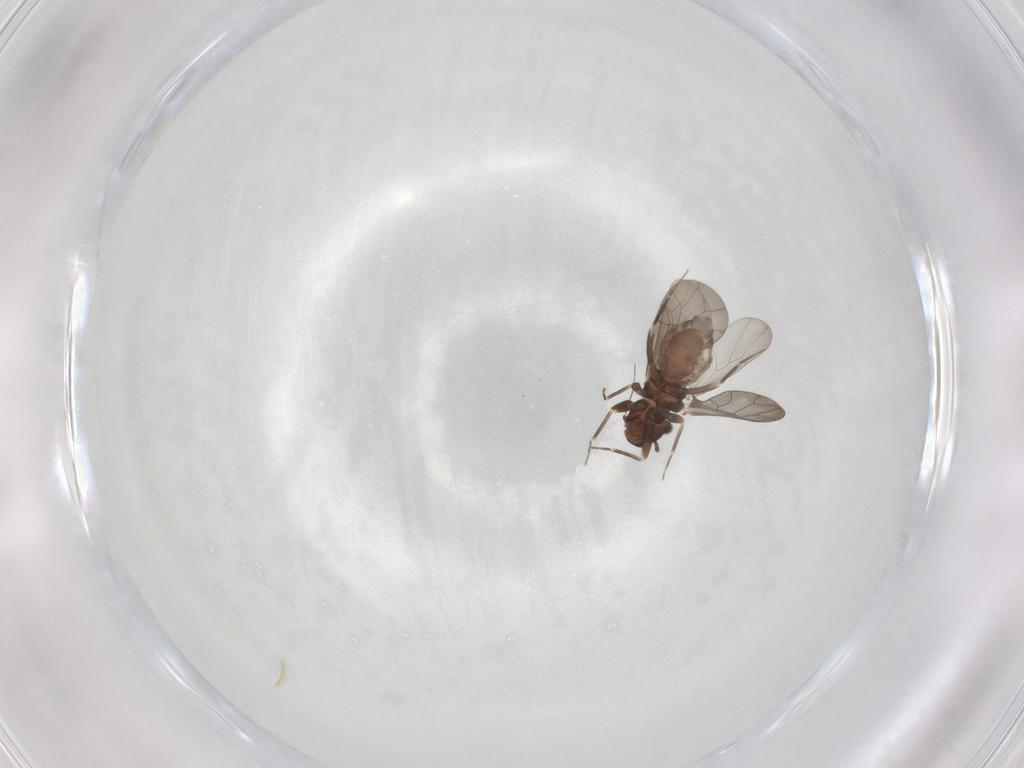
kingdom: Animalia
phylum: Arthropoda
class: Insecta
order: Psocodea
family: Lepidopsocidae
